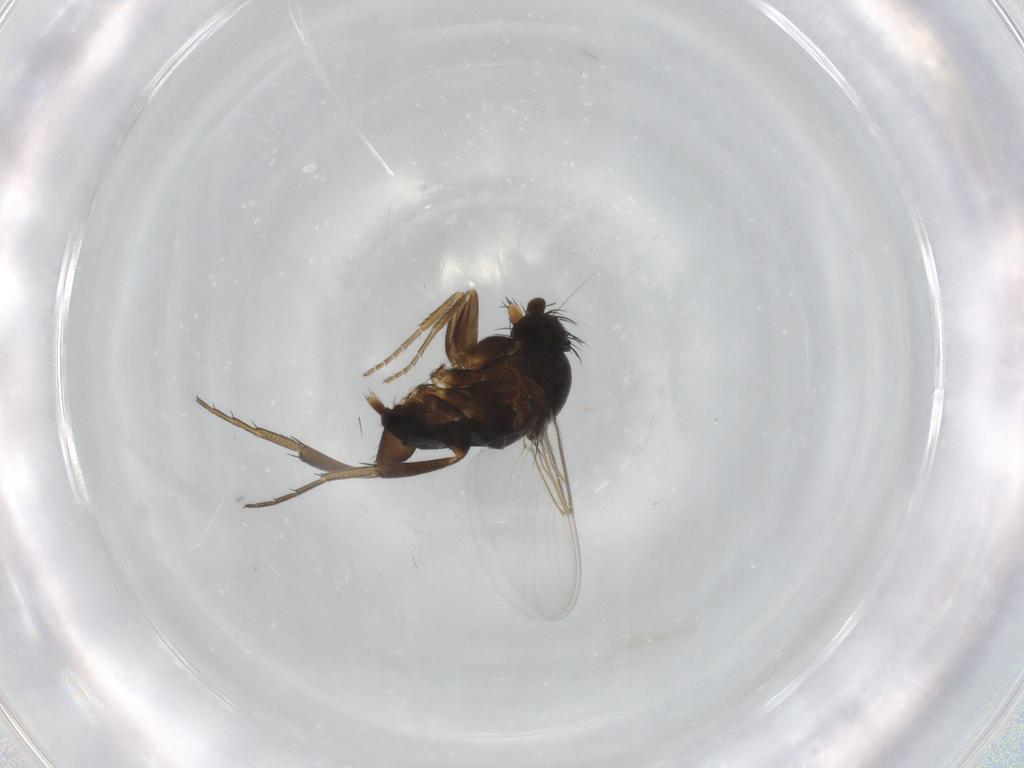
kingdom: Animalia
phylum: Arthropoda
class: Insecta
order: Diptera
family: Phoridae
